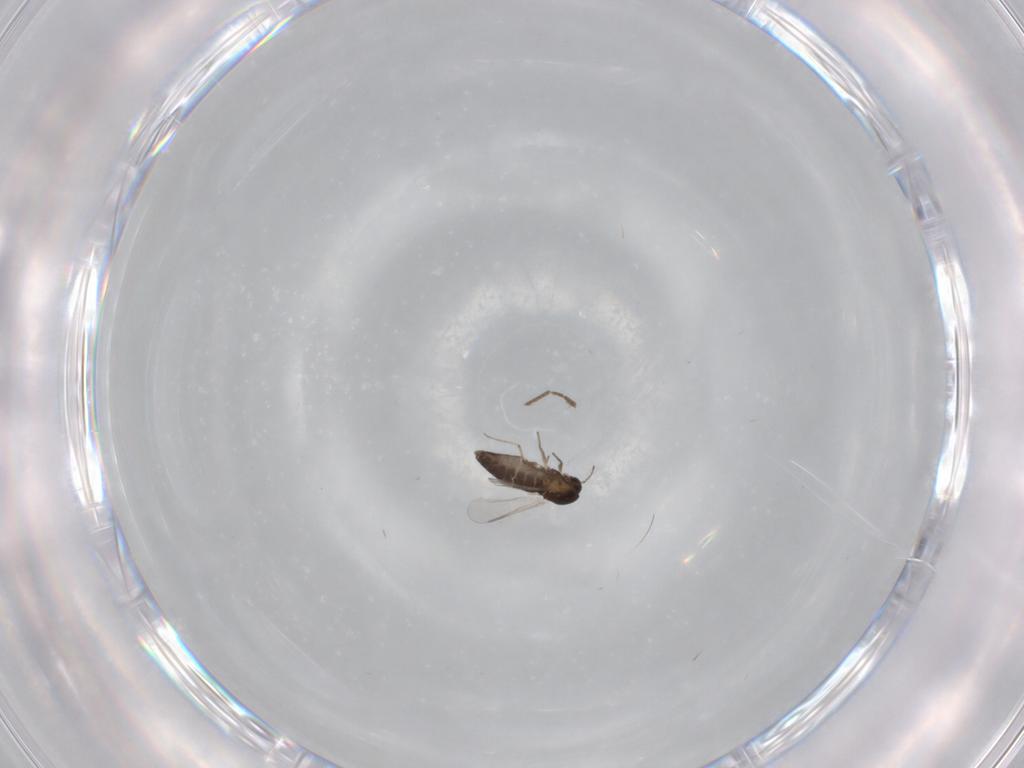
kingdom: Animalia
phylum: Arthropoda
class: Insecta
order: Diptera
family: Chironomidae
